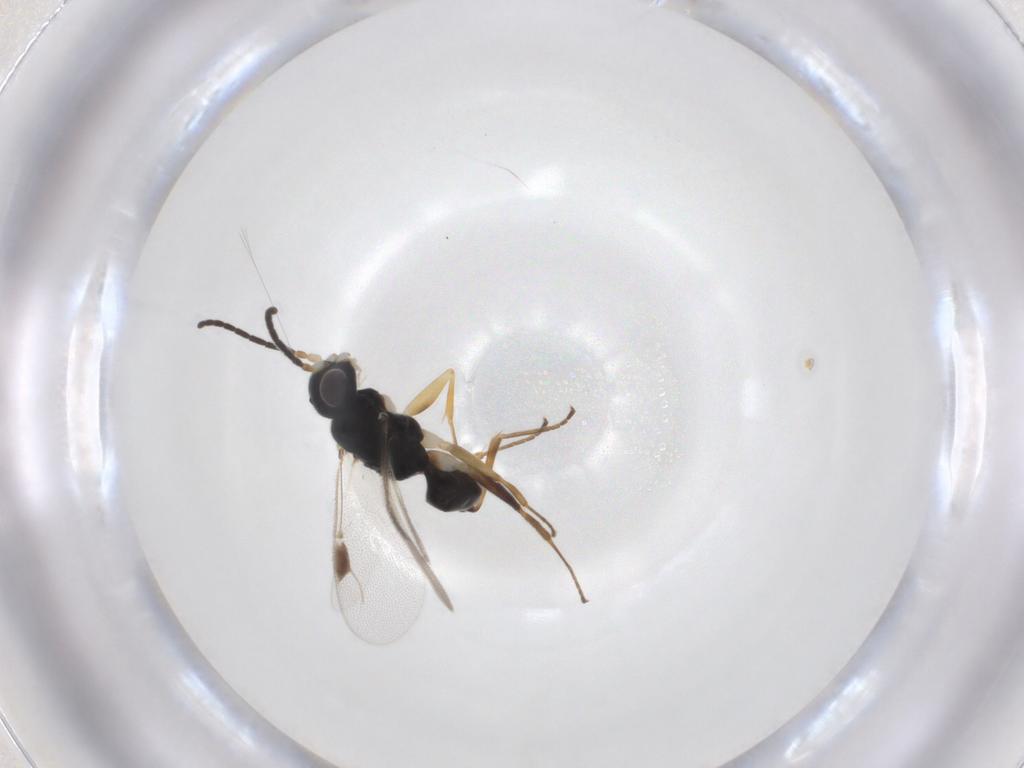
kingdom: Animalia
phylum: Arthropoda
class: Insecta
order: Hymenoptera
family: Dryinidae
